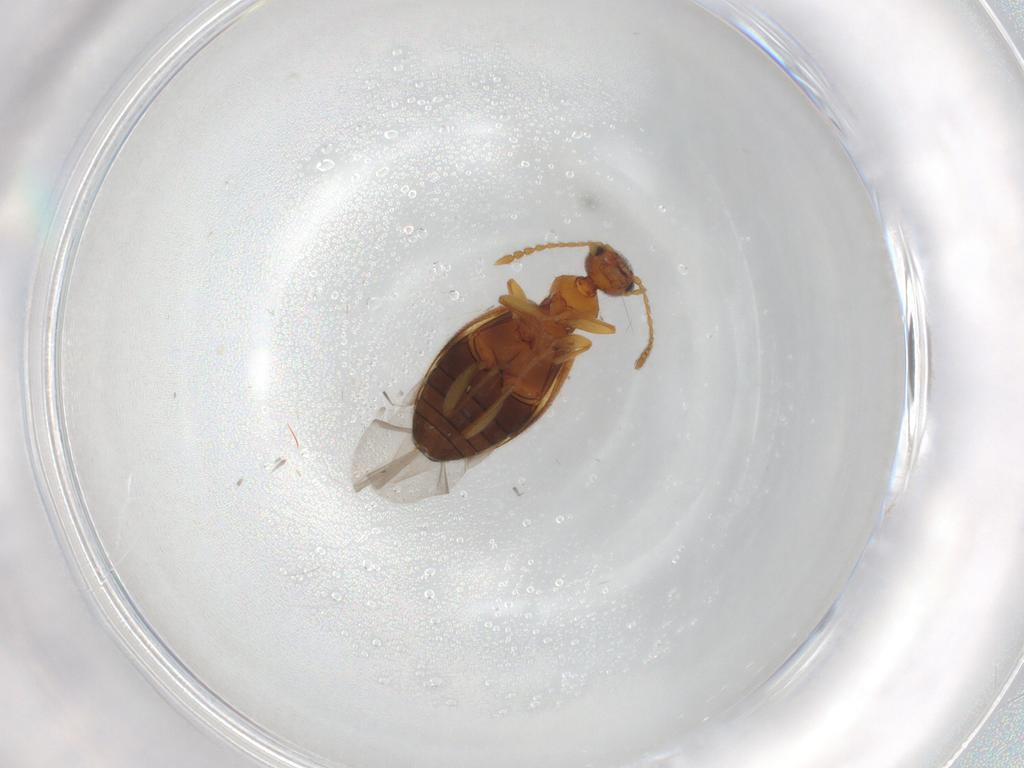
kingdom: Animalia
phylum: Arthropoda
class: Insecta
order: Coleoptera
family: Anthicidae
